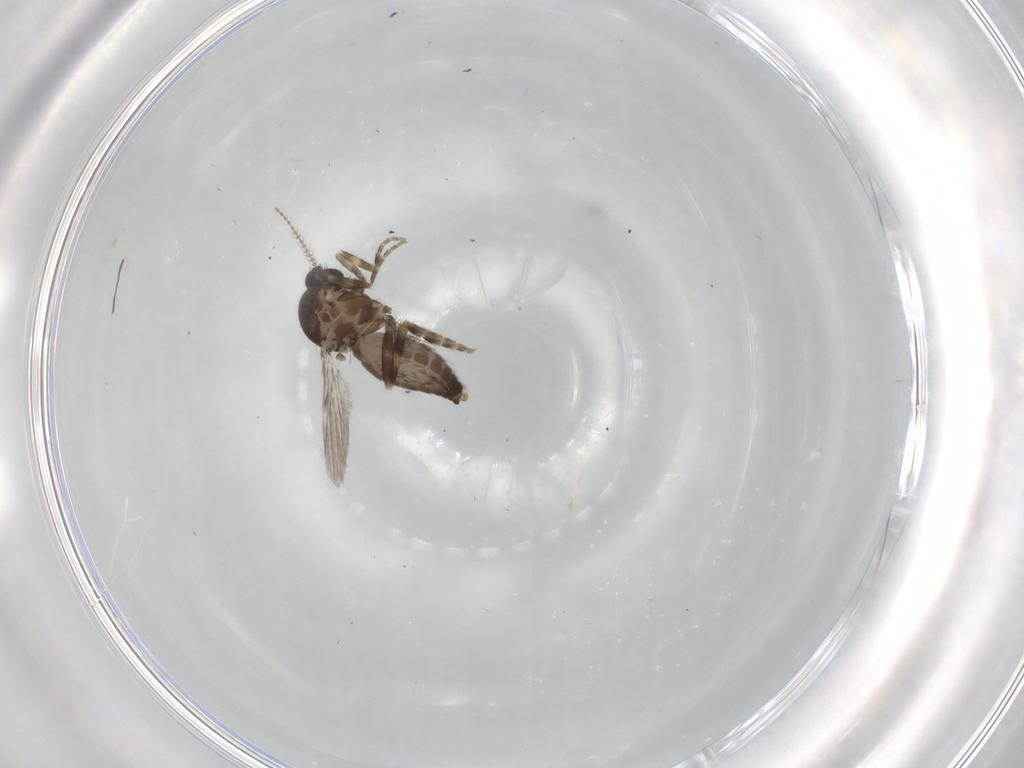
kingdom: Animalia
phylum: Arthropoda
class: Insecta
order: Diptera
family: Ceratopogonidae
